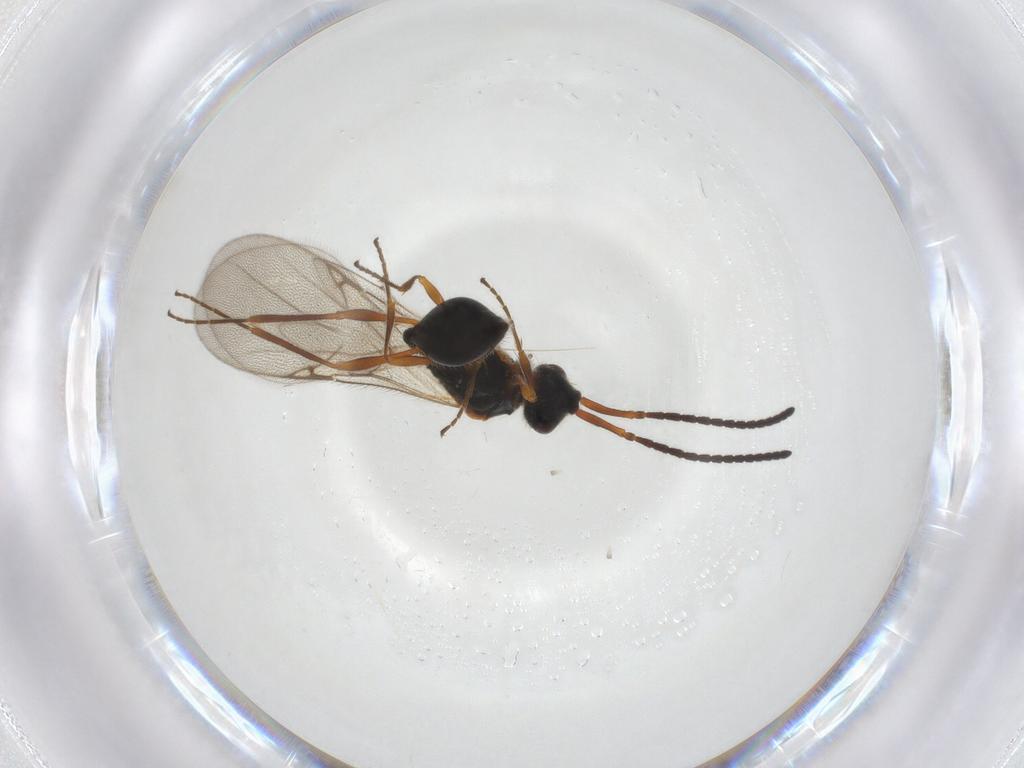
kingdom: Animalia
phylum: Arthropoda
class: Insecta
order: Hymenoptera
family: Diapriidae
